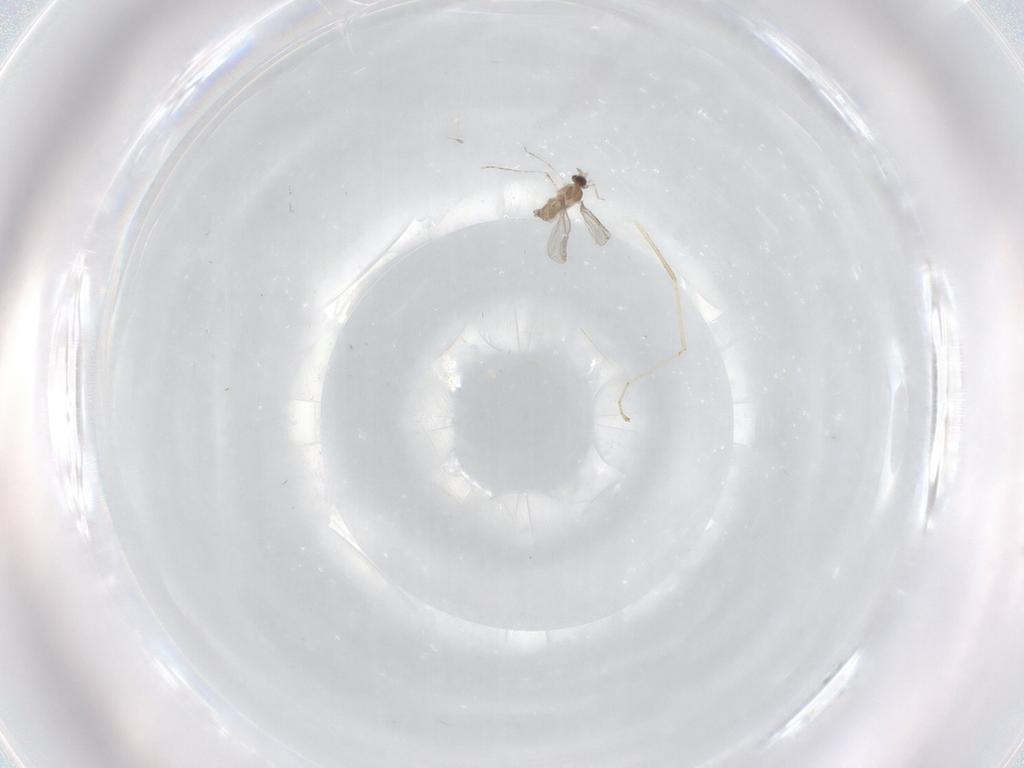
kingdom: Animalia
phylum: Arthropoda
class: Insecta
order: Diptera
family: Cecidomyiidae
